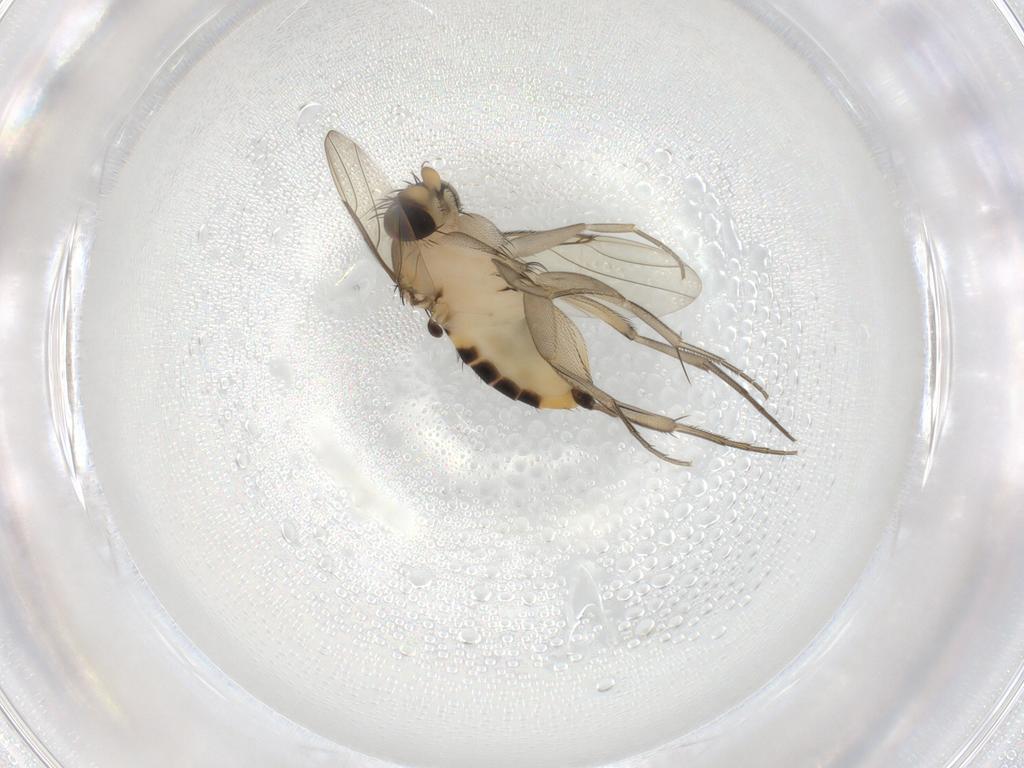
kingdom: Animalia
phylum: Arthropoda
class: Insecta
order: Diptera
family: Phoridae
